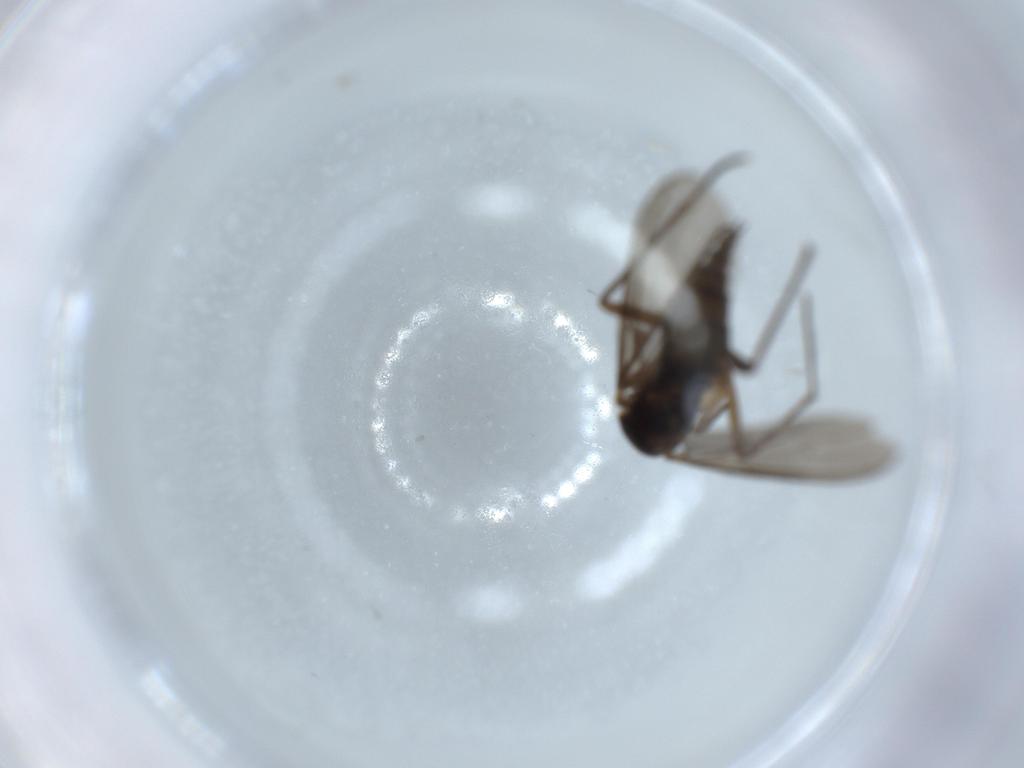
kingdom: Animalia
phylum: Arthropoda
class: Insecta
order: Diptera
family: Sciaridae
